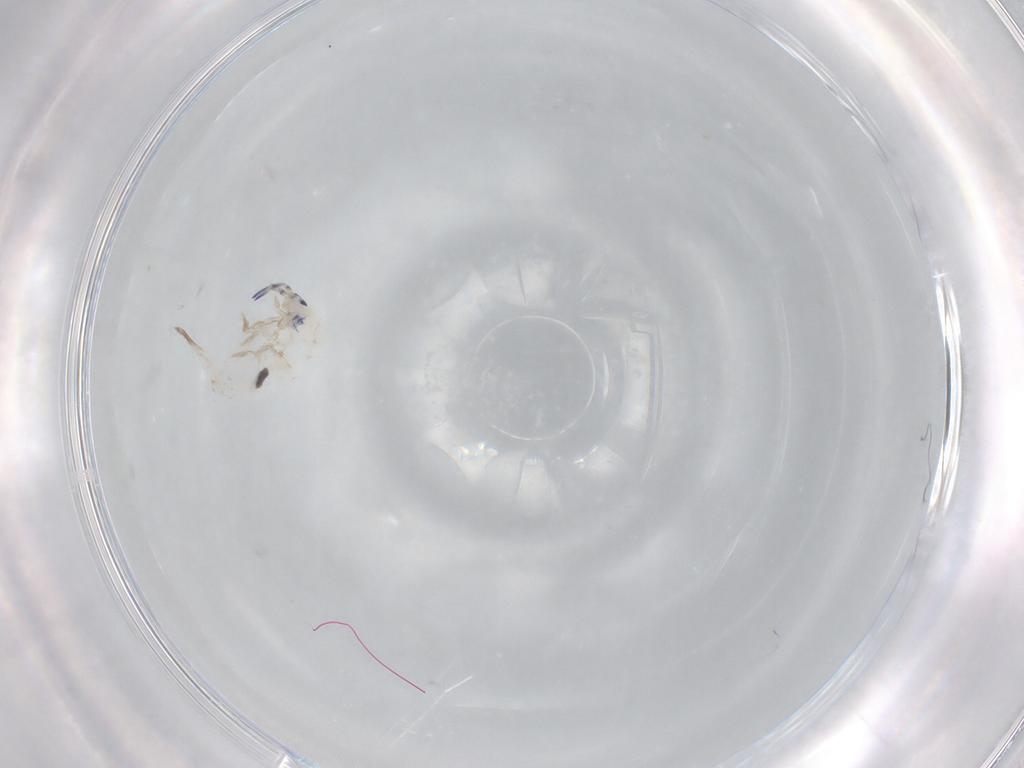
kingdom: Animalia
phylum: Arthropoda
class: Collembola
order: Entomobryomorpha
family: Entomobryidae
